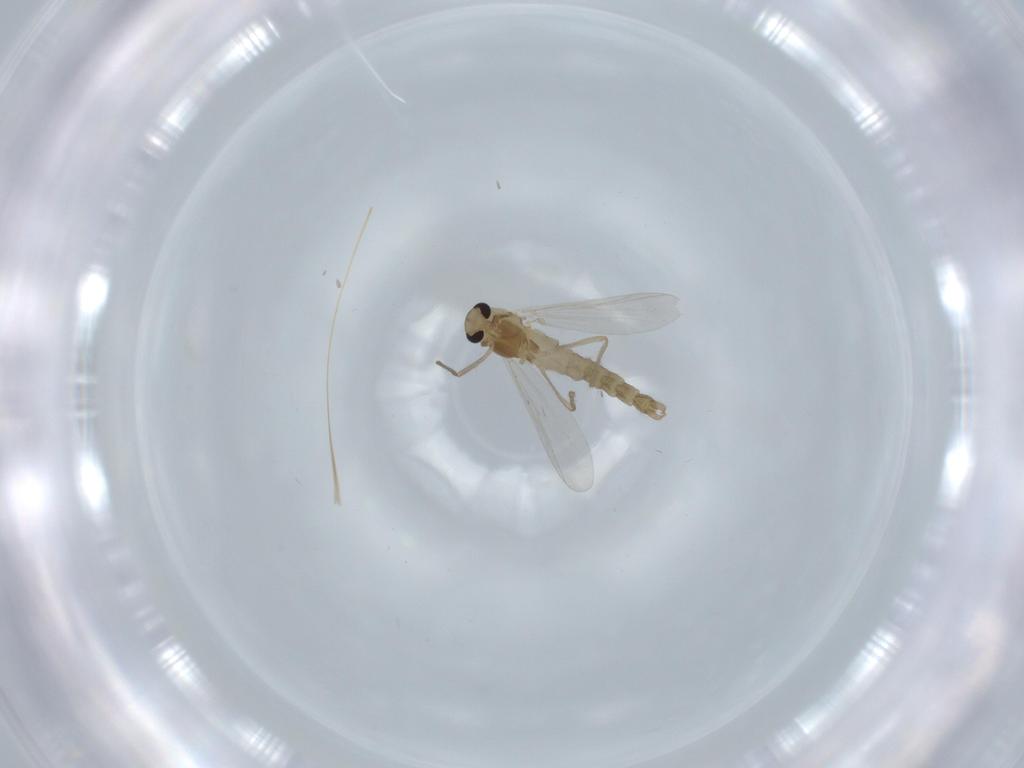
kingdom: Animalia
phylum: Arthropoda
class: Insecta
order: Diptera
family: Chironomidae
